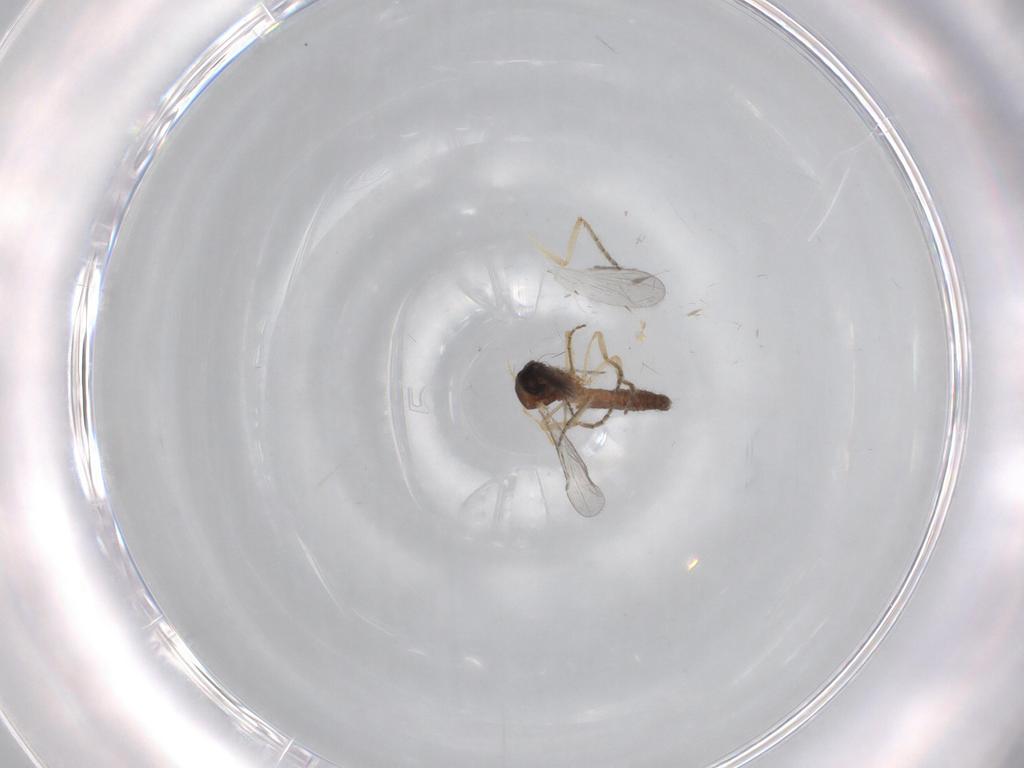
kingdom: Animalia
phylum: Arthropoda
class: Insecta
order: Diptera
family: Ceratopogonidae
